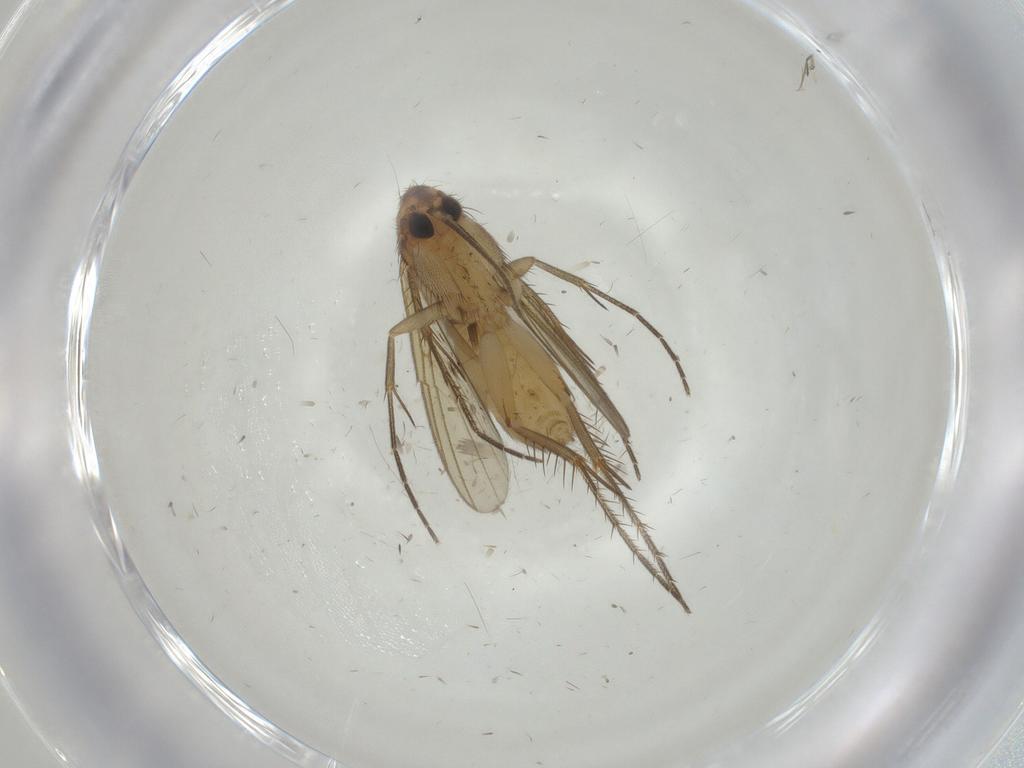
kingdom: Animalia
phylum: Arthropoda
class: Insecta
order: Diptera
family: Mycetophilidae
